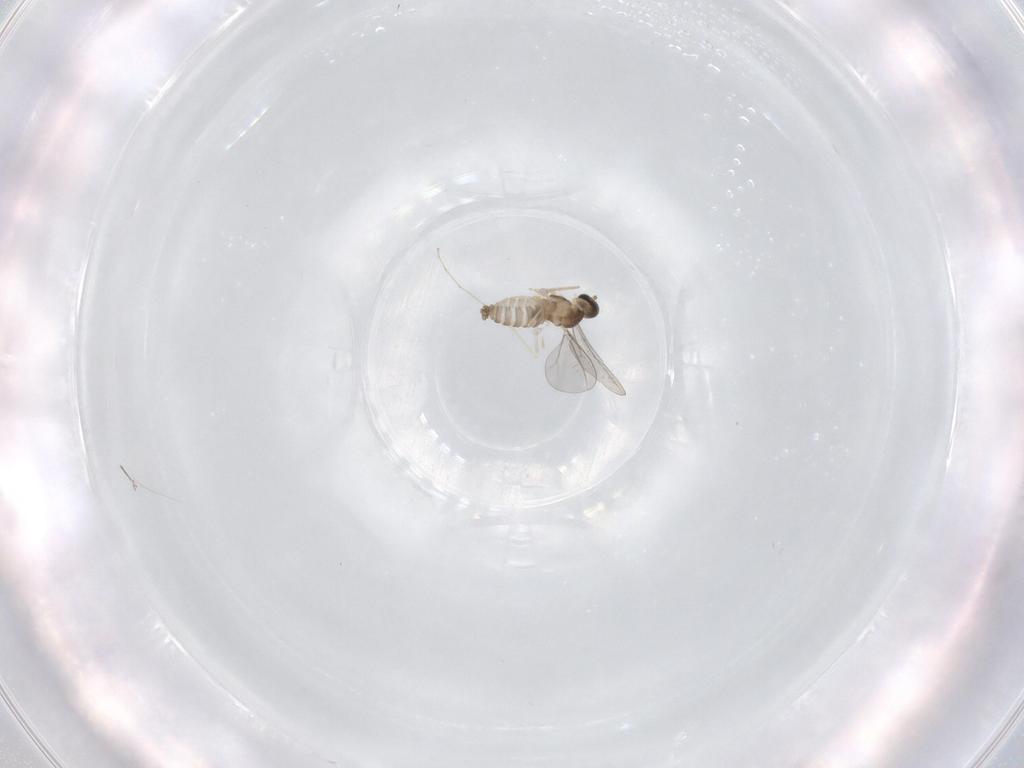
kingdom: Animalia
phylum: Arthropoda
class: Insecta
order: Diptera
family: Cecidomyiidae
